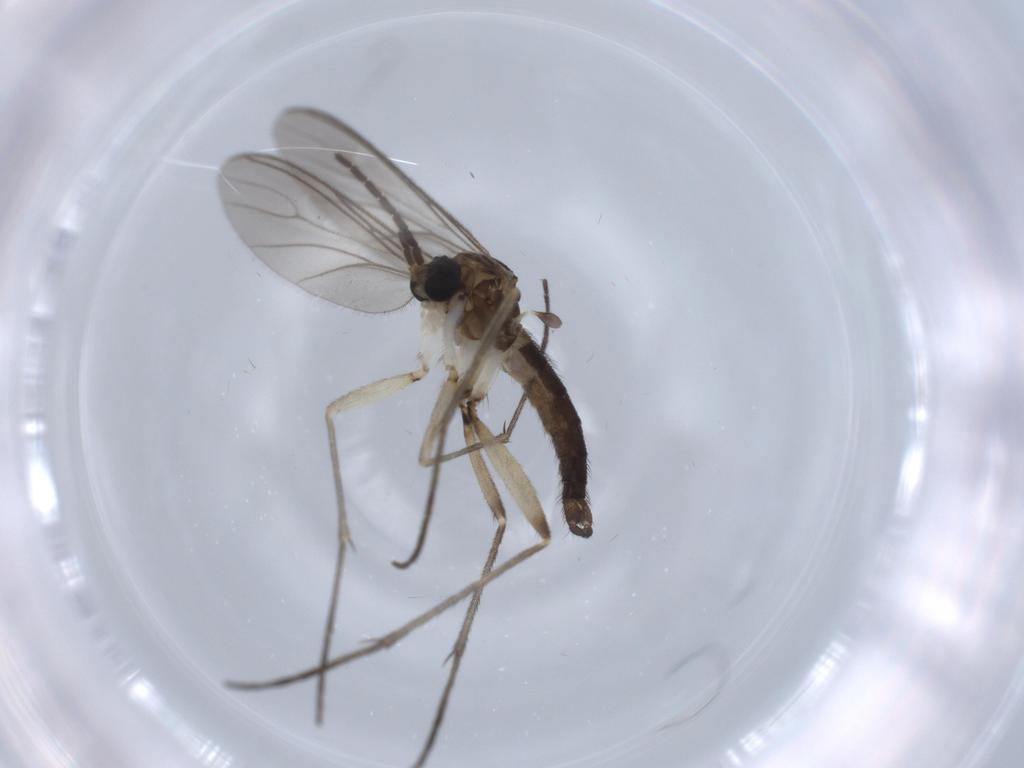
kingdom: Animalia
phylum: Arthropoda
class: Insecta
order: Diptera
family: Sciaridae
